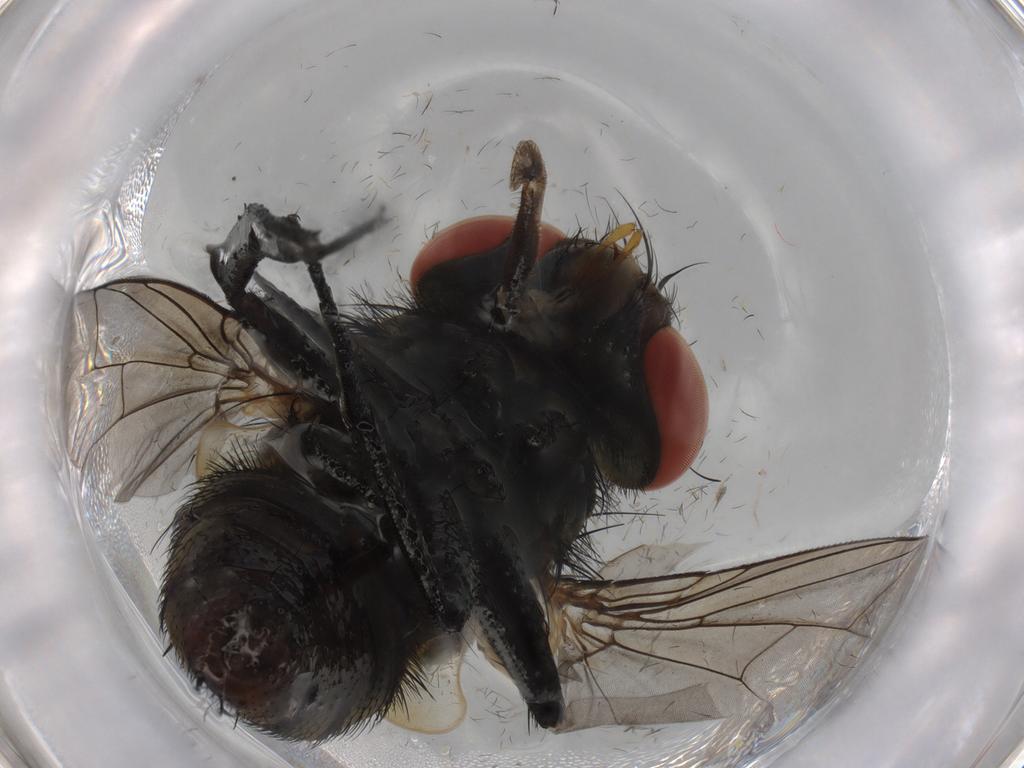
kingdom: Animalia
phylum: Arthropoda
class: Insecta
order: Diptera
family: Sarcophagidae
